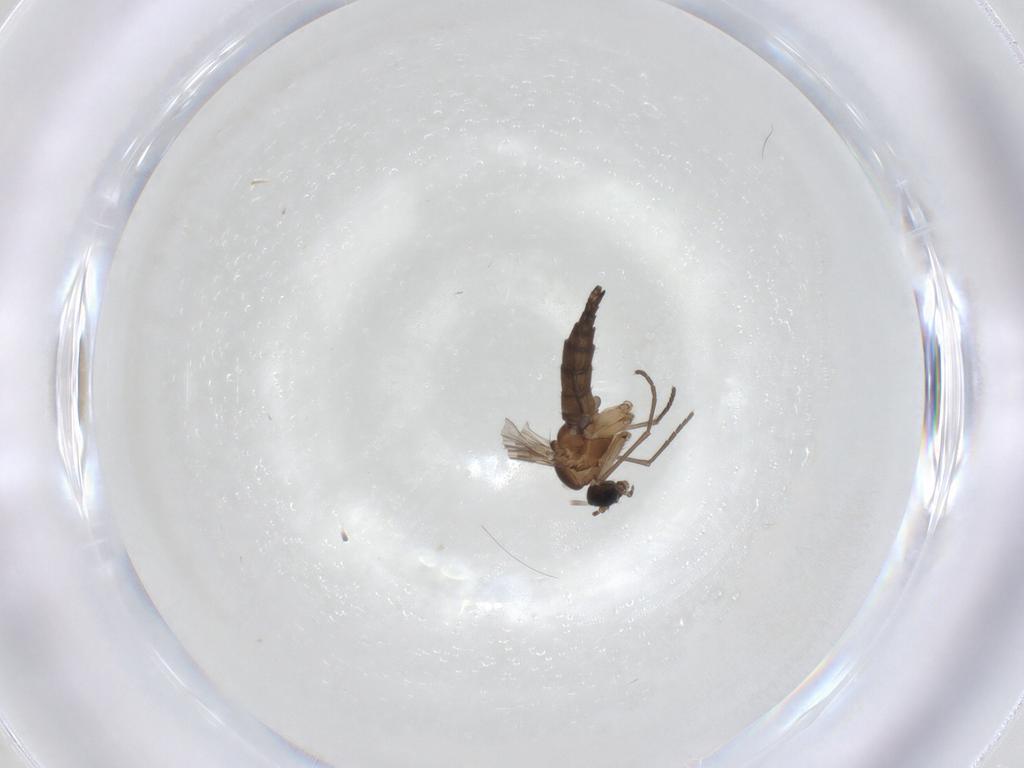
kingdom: Animalia
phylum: Arthropoda
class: Insecta
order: Diptera
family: Sciaridae
